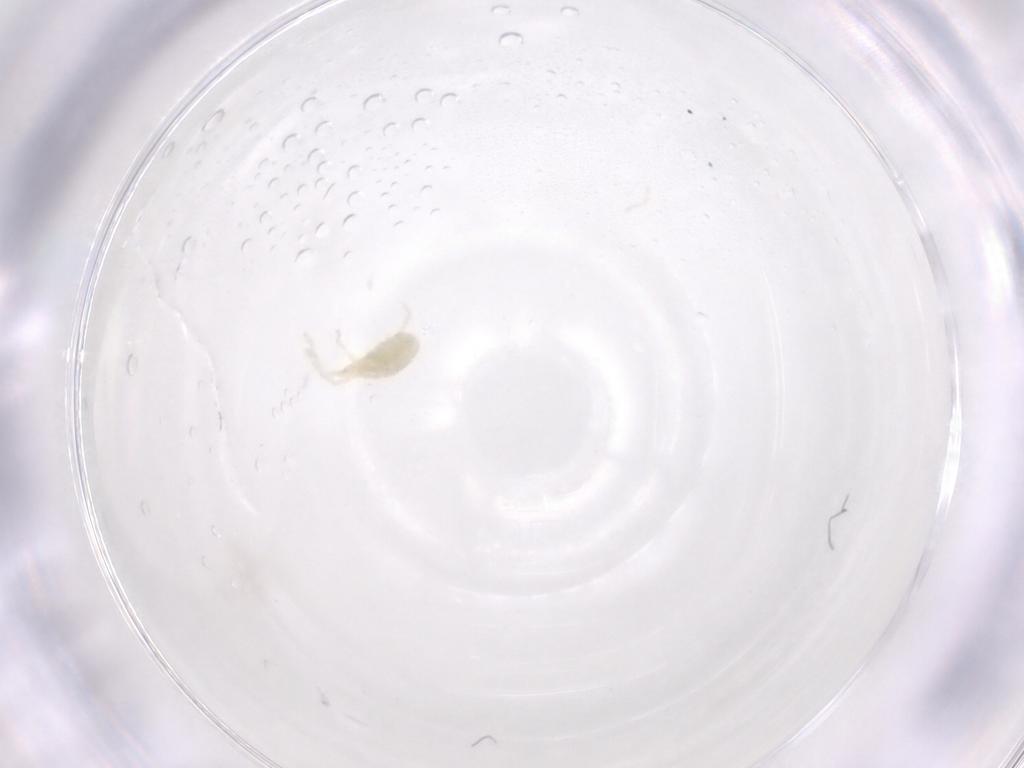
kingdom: Animalia
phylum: Arthropoda
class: Arachnida
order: Trombidiformes
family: Erythraeidae
